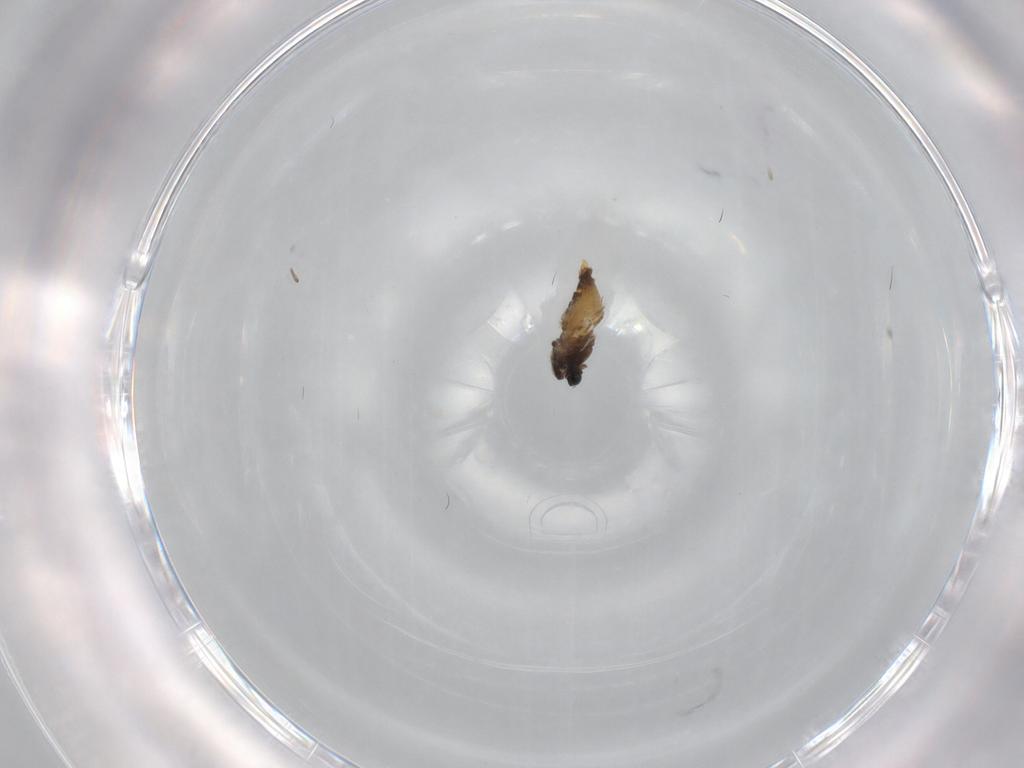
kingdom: Animalia
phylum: Arthropoda
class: Insecta
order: Diptera
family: Chironomidae
